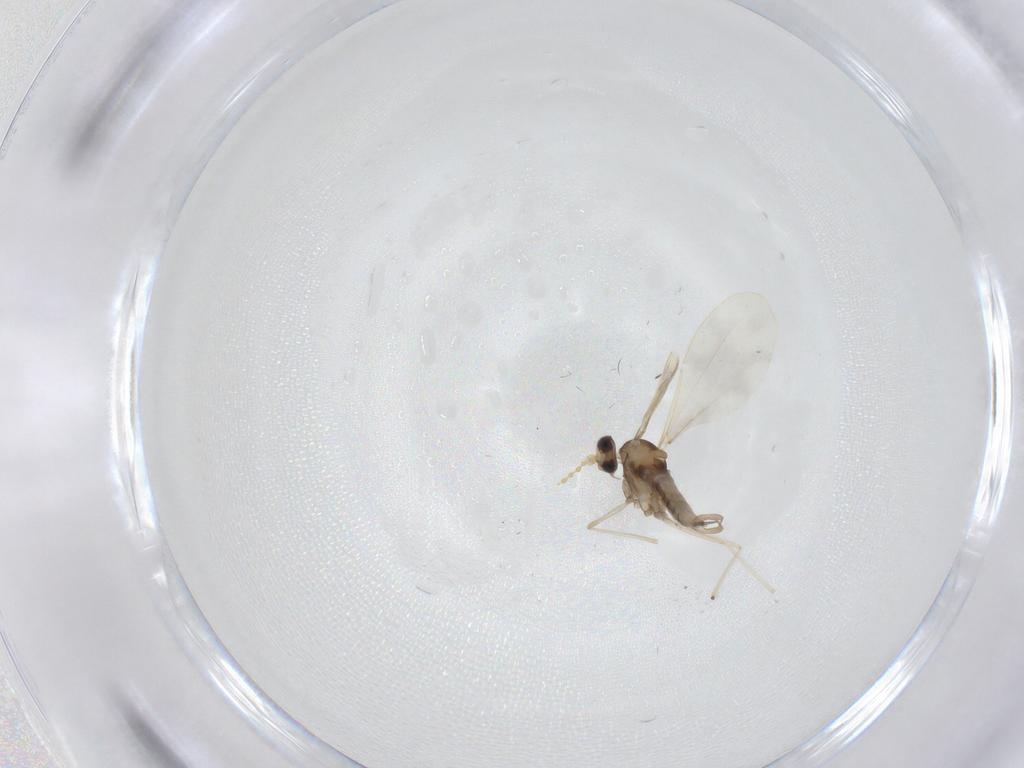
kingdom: Animalia
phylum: Arthropoda
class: Insecta
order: Diptera
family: Cecidomyiidae
